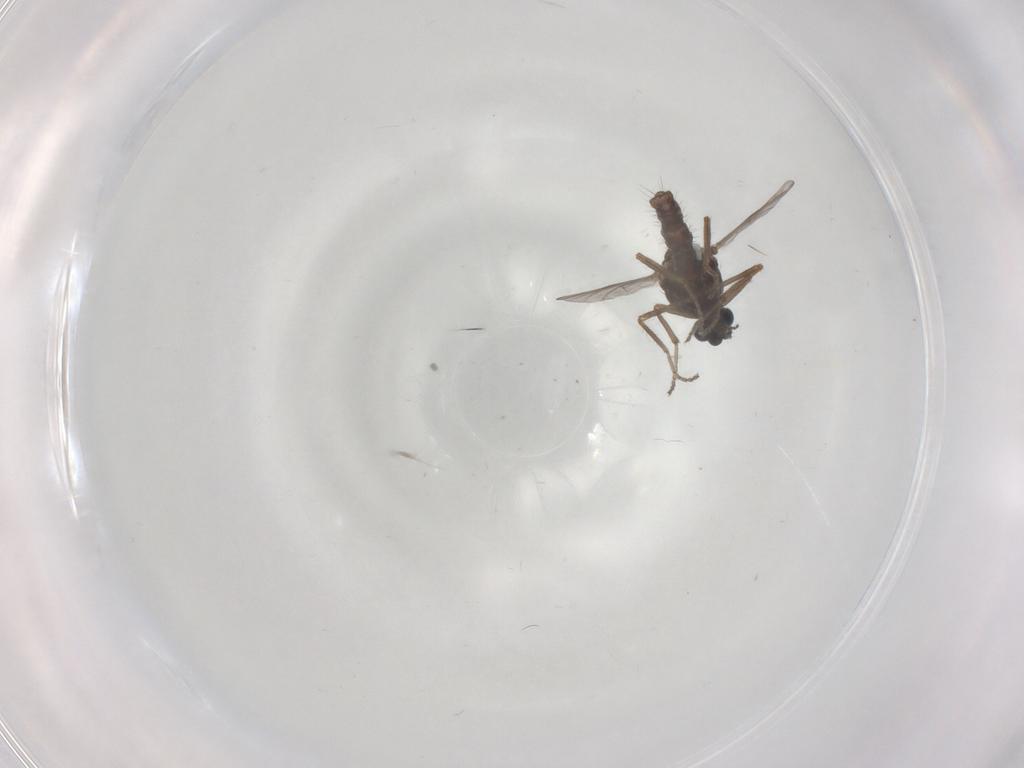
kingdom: Animalia
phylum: Arthropoda
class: Insecta
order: Diptera
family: Ceratopogonidae
